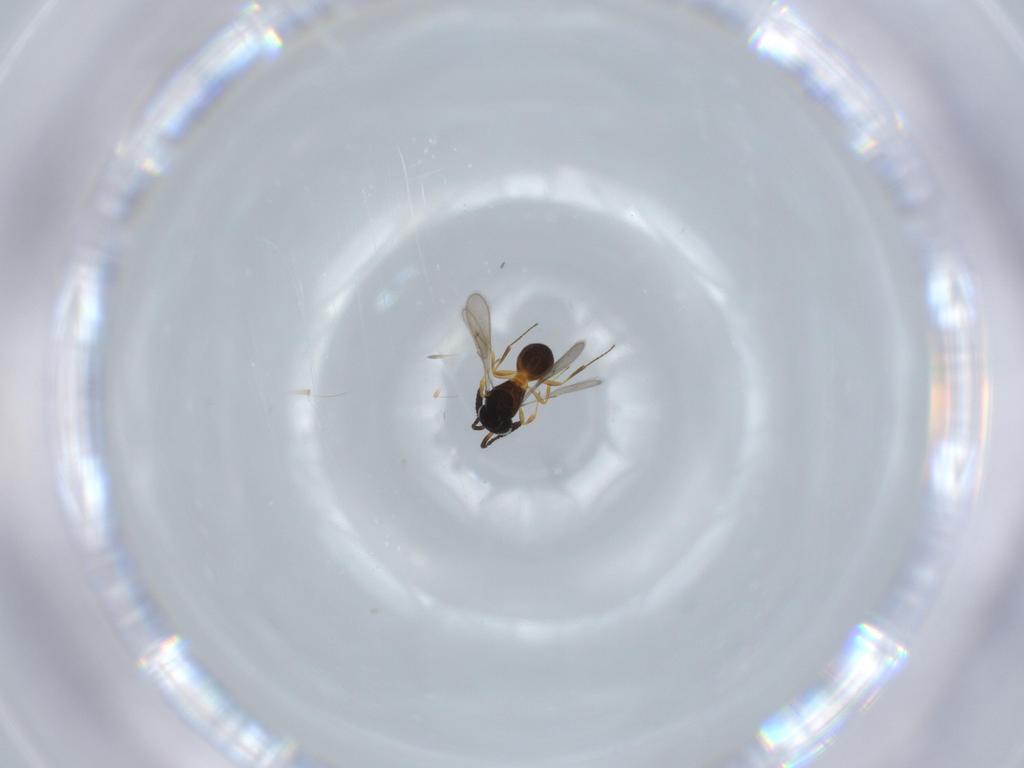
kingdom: Animalia
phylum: Arthropoda
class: Insecta
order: Hymenoptera
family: Scelionidae
